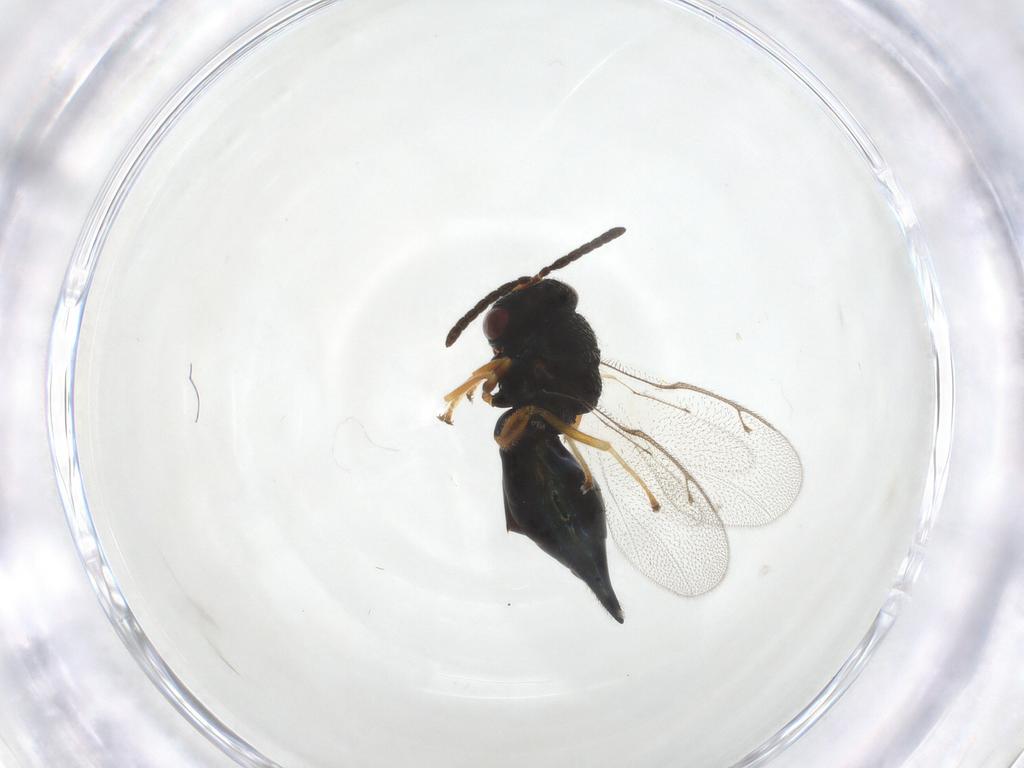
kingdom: Animalia
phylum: Arthropoda
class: Insecta
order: Hymenoptera
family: Pteromalidae
